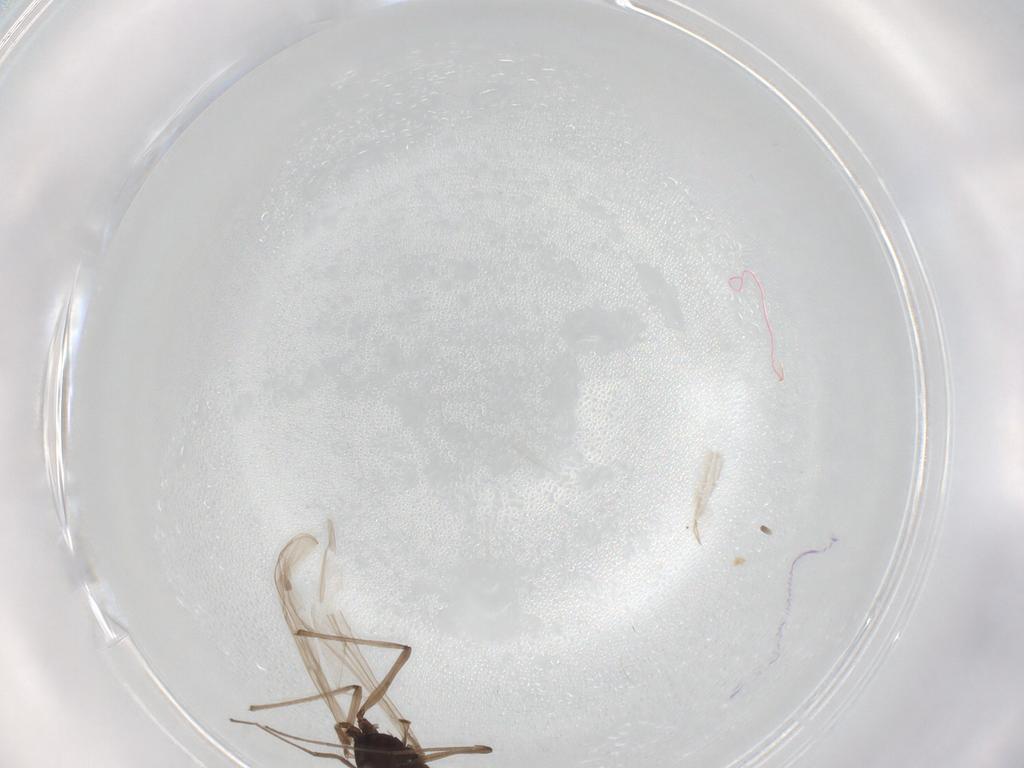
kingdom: Animalia
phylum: Arthropoda
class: Insecta
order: Diptera
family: Chironomidae
